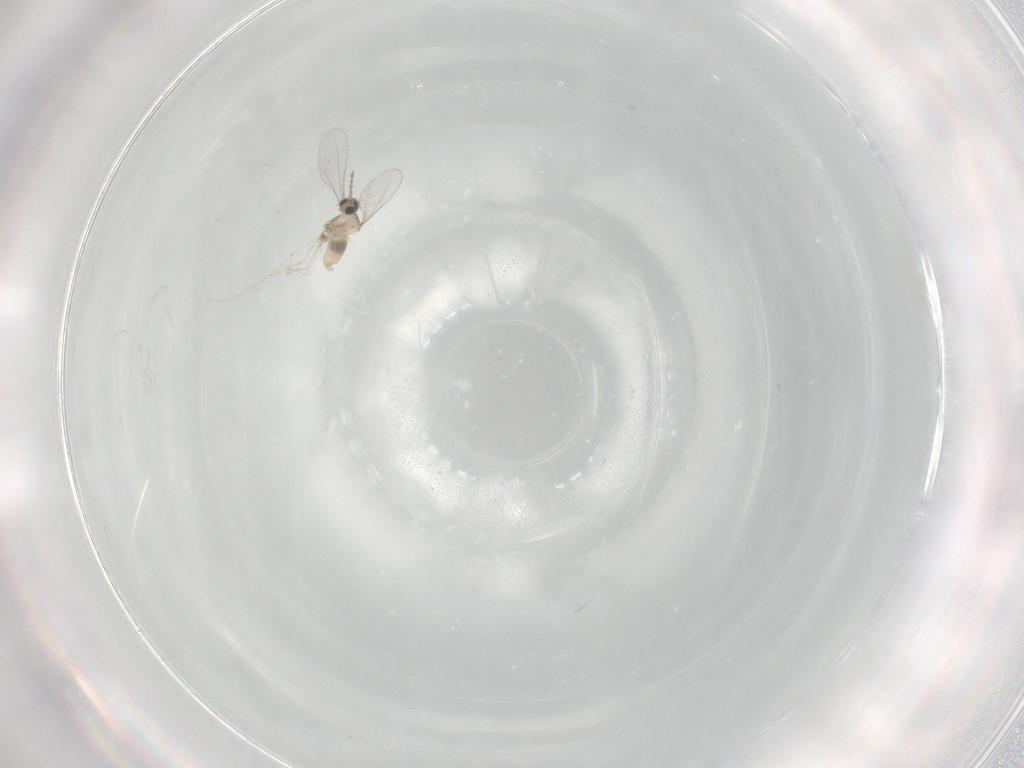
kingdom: Animalia
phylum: Arthropoda
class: Insecta
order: Diptera
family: Cecidomyiidae
